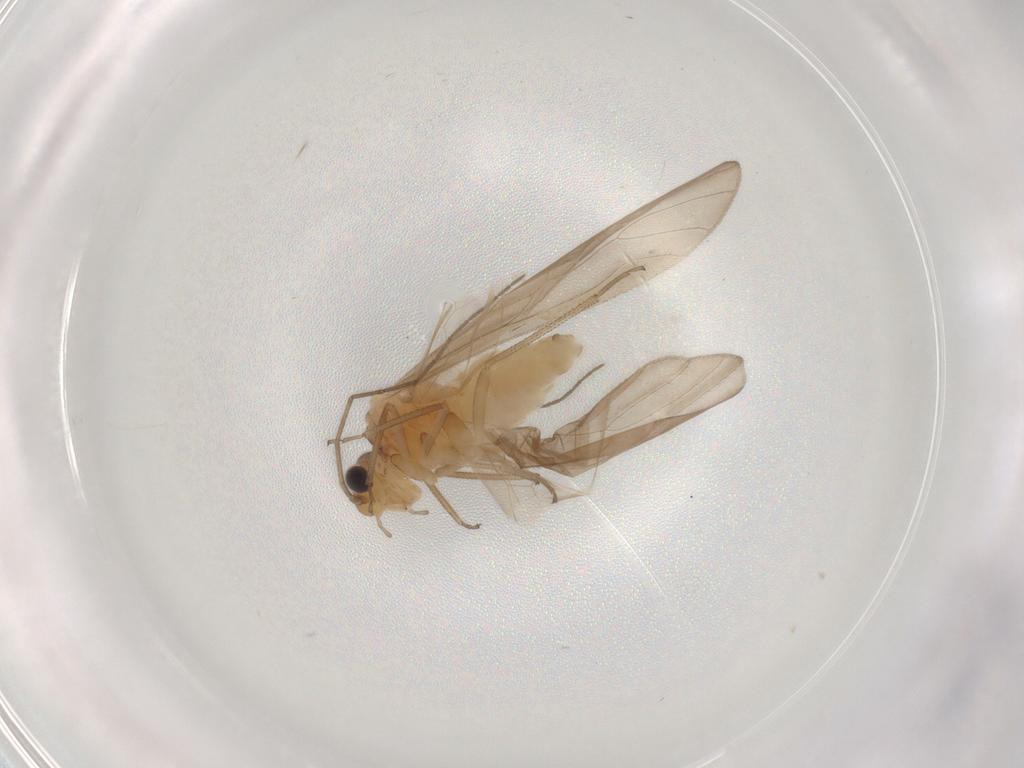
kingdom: Animalia
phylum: Arthropoda
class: Insecta
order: Psocodea
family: Caeciliusidae
